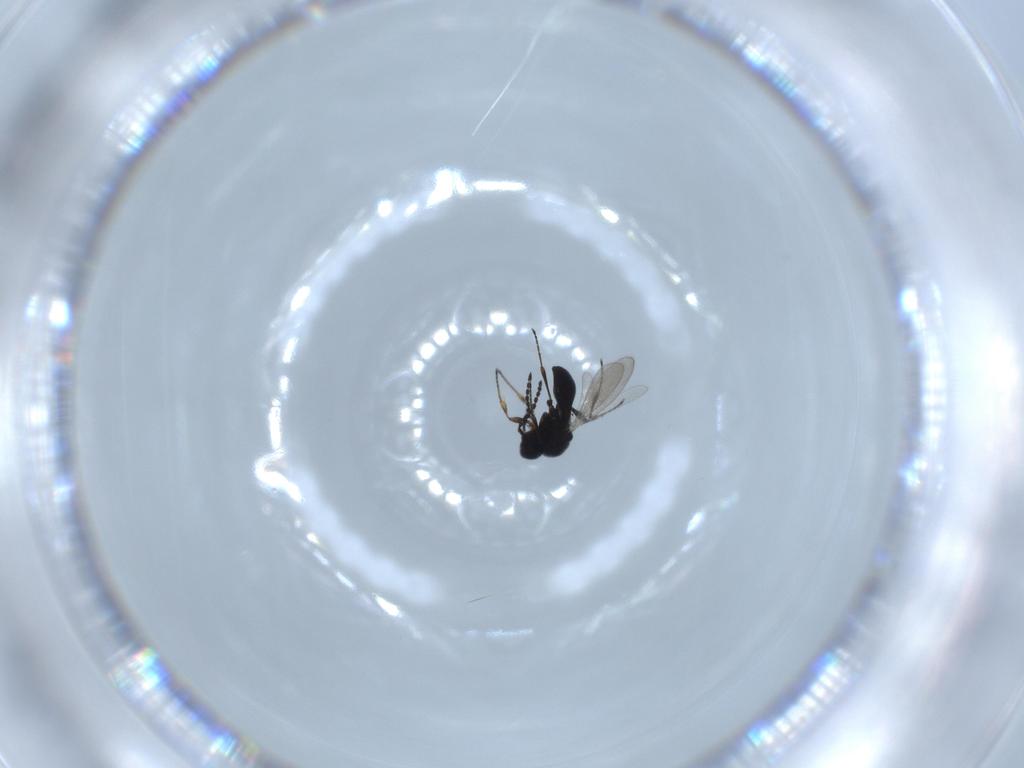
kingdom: Animalia
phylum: Arthropoda
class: Insecta
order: Hymenoptera
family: Platygastridae
